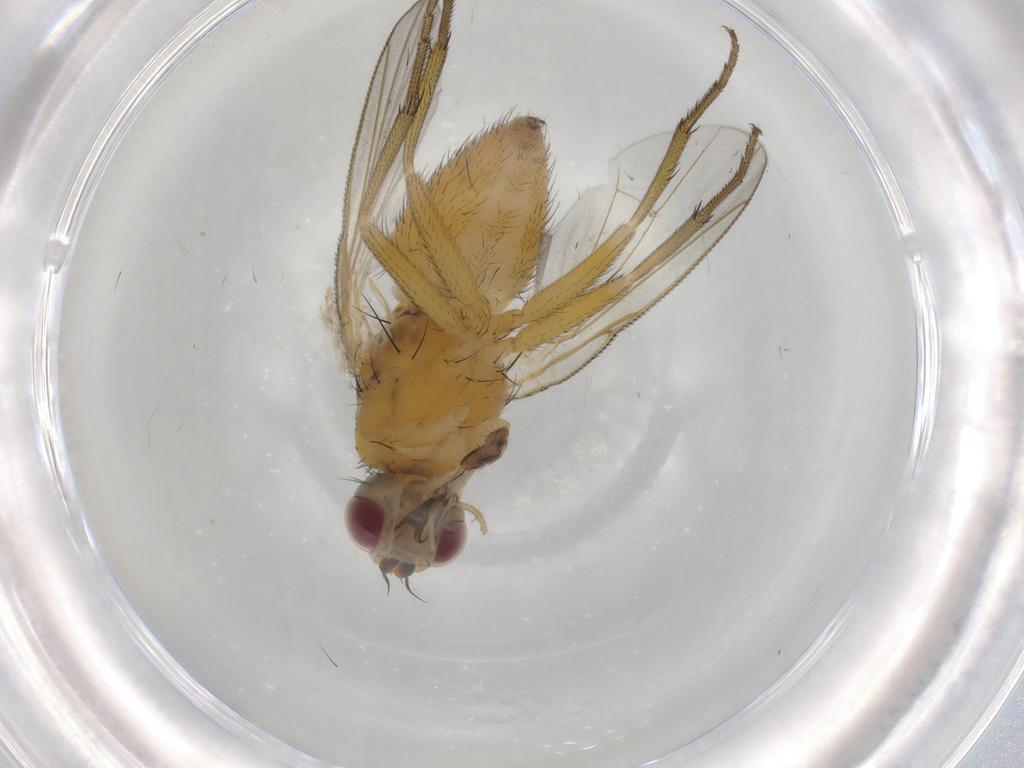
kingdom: Animalia
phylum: Arthropoda
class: Insecta
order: Diptera
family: Muscidae
